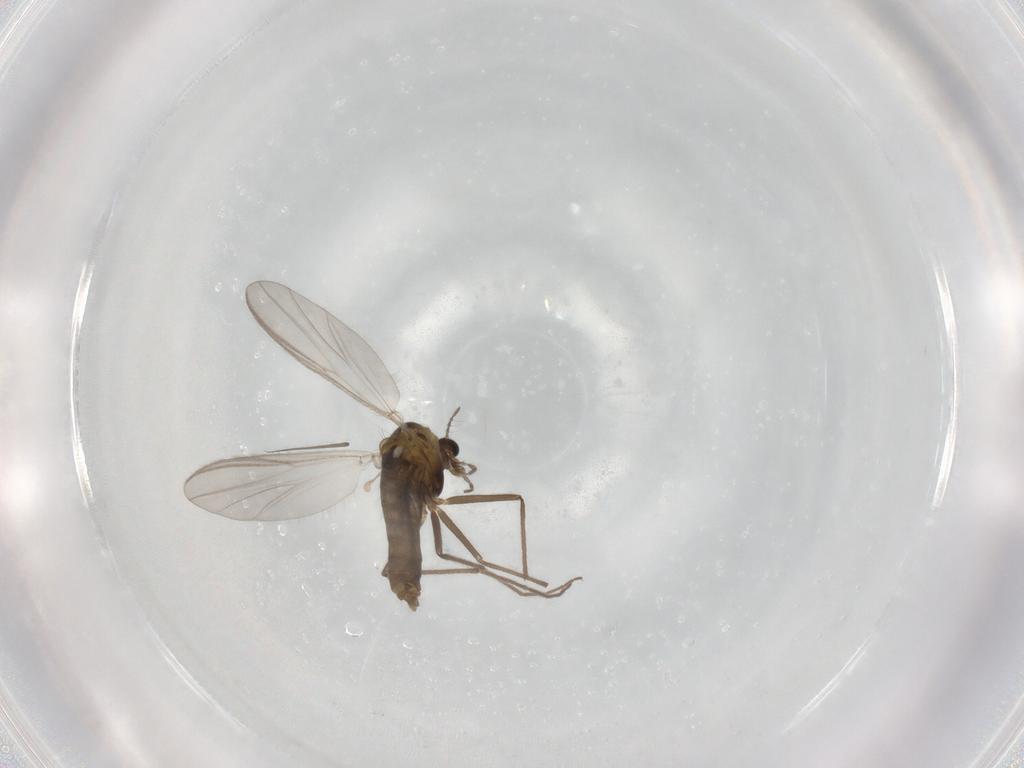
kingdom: Animalia
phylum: Arthropoda
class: Insecta
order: Diptera
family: Chironomidae
